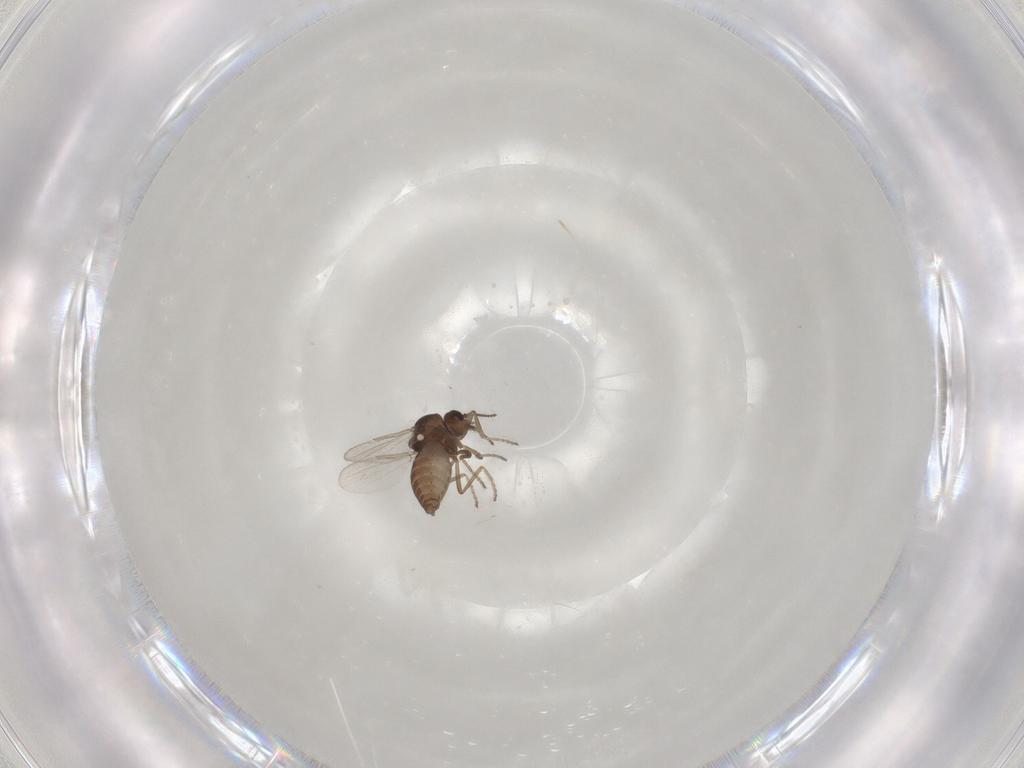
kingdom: Animalia
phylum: Arthropoda
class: Insecta
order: Diptera
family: Ceratopogonidae
